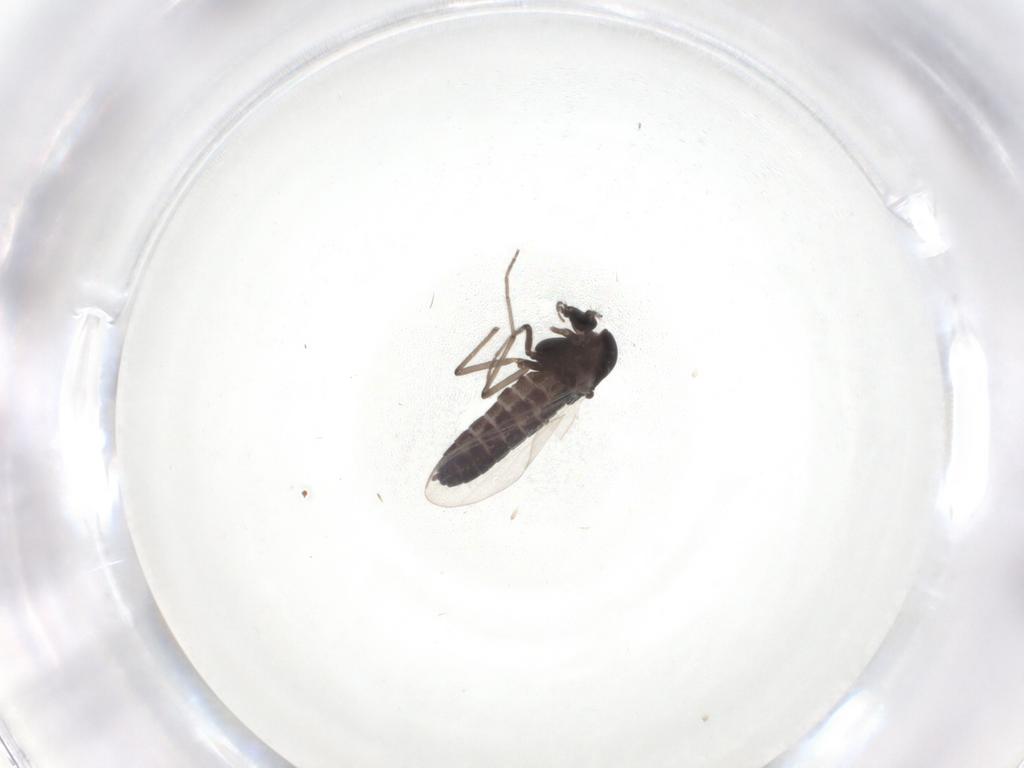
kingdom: Animalia
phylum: Arthropoda
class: Insecta
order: Diptera
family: Chironomidae
